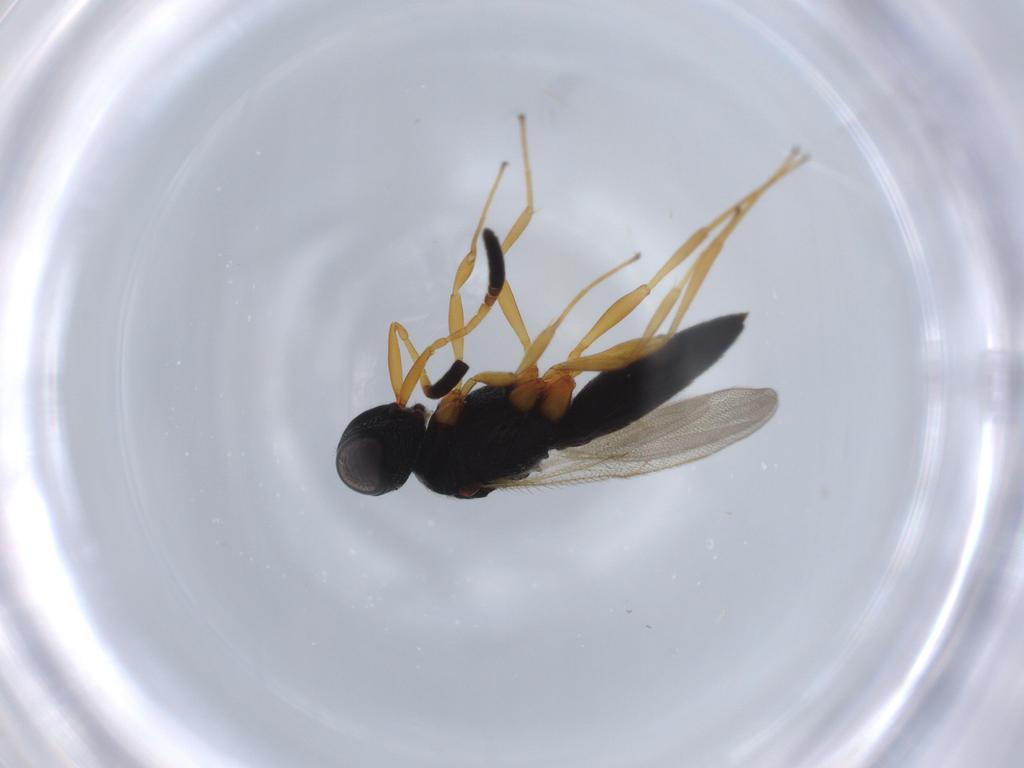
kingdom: Animalia
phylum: Arthropoda
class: Insecta
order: Hymenoptera
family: Scelionidae
